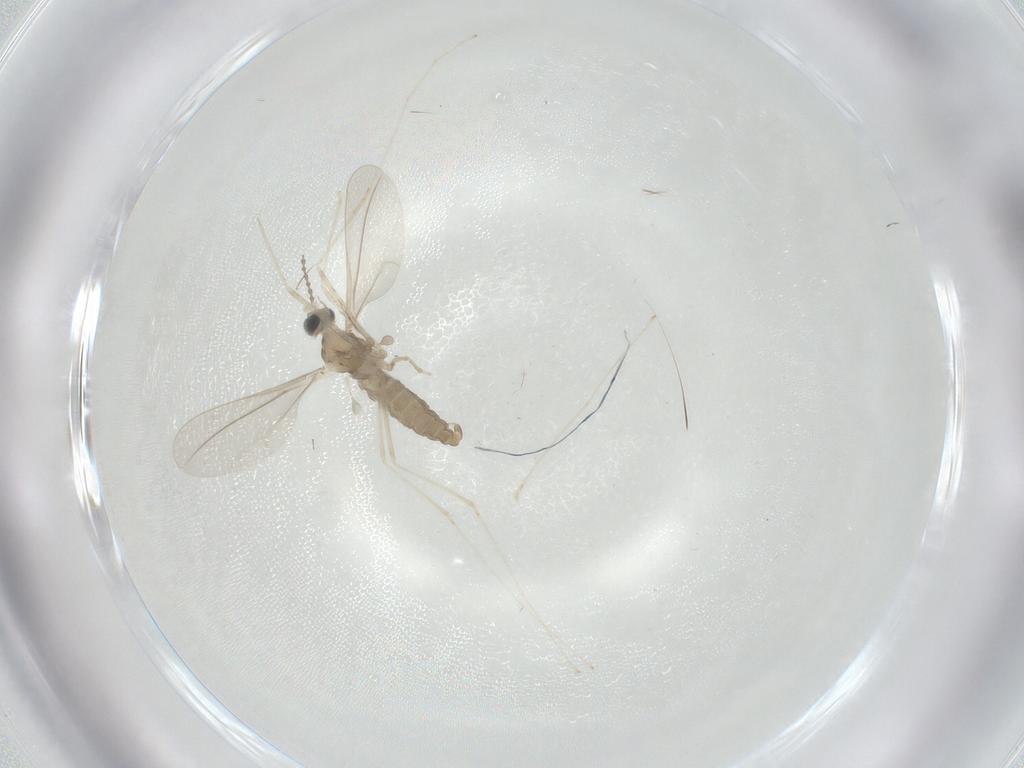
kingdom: Animalia
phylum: Arthropoda
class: Insecta
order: Diptera
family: Cecidomyiidae
